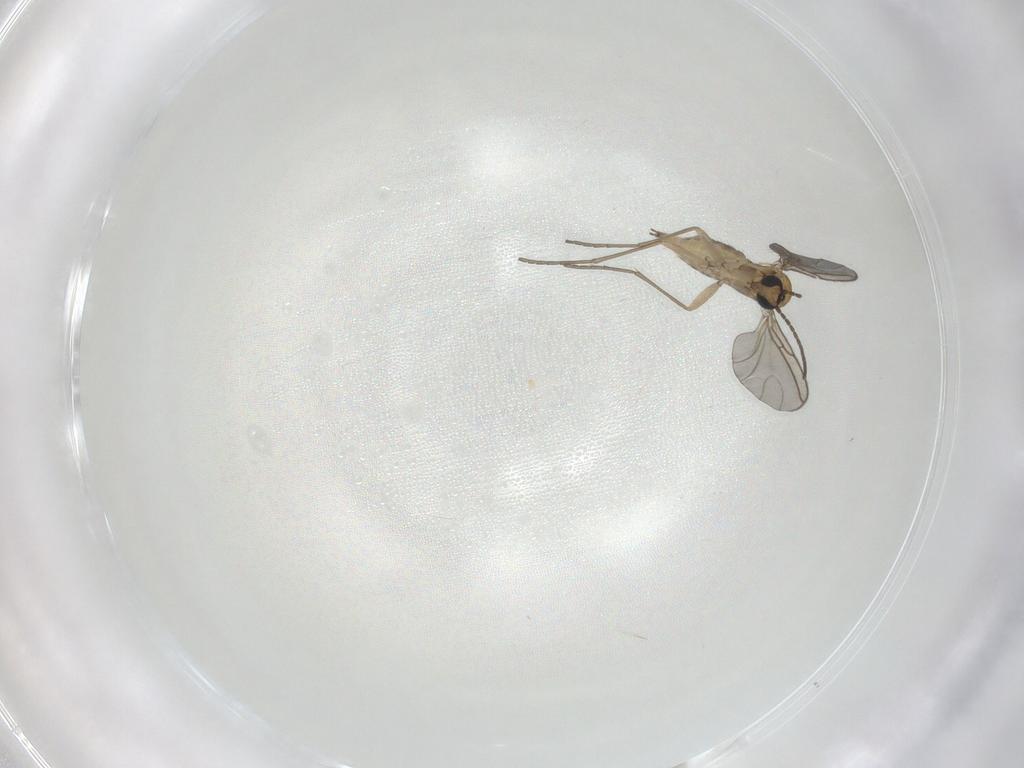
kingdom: Animalia
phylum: Arthropoda
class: Insecta
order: Diptera
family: Sciaridae
